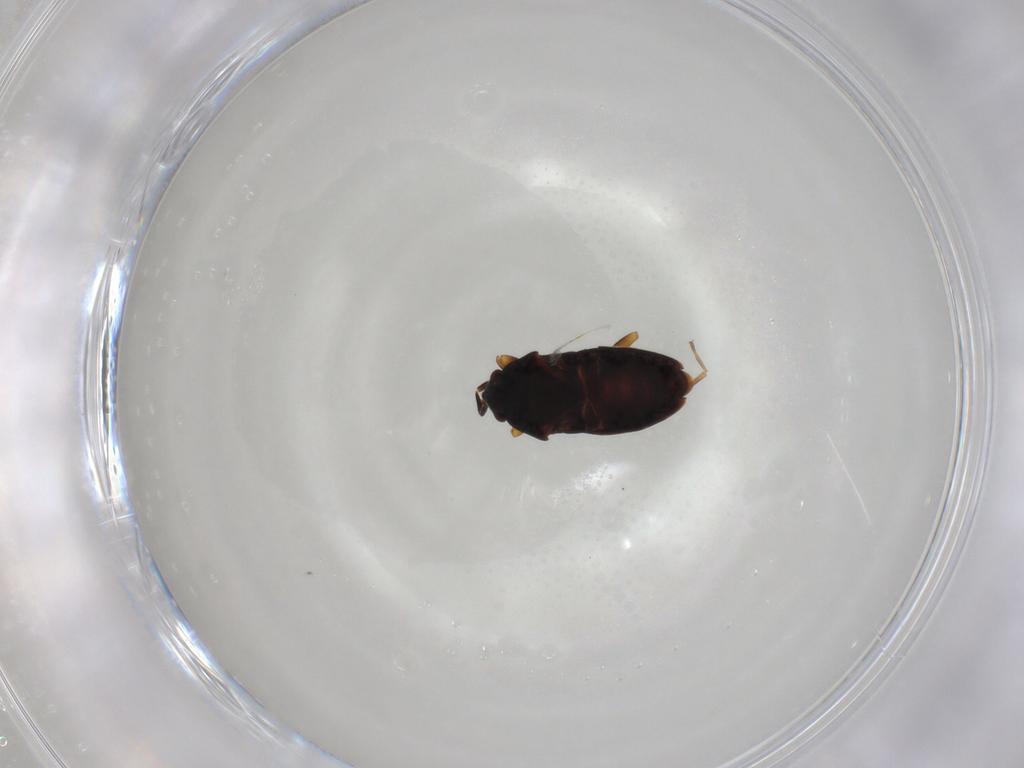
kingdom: Animalia
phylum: Arthropoda
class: Insecta
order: Hemiptera
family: Rhyparochromidae
